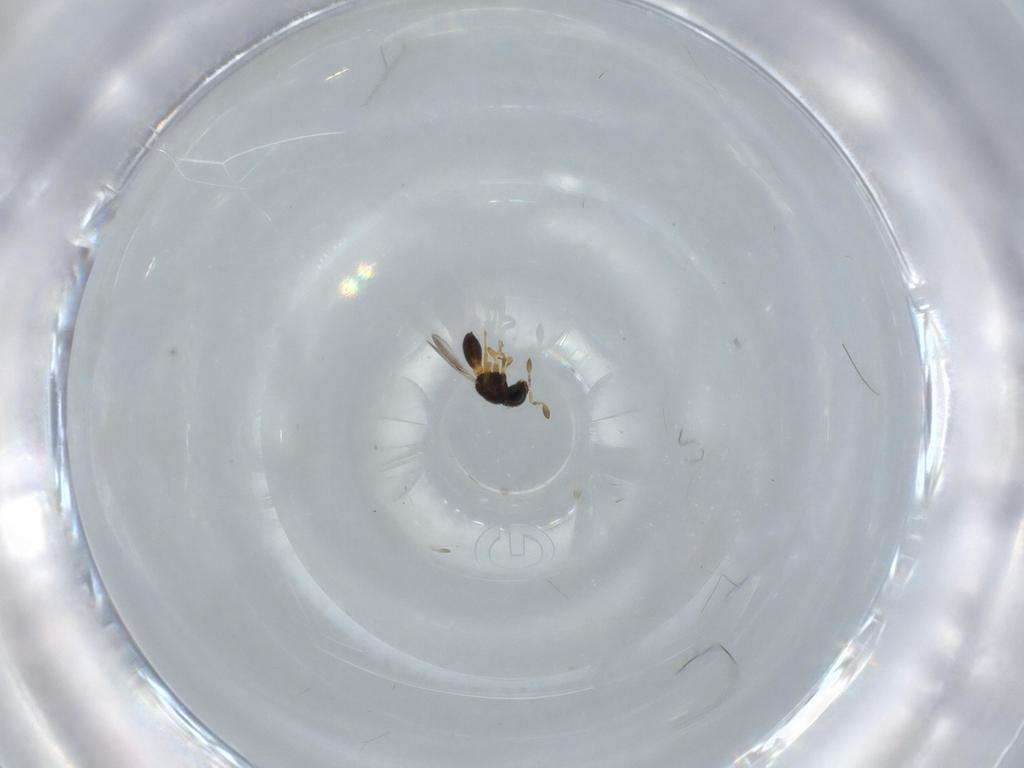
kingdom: Animalia
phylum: Arthropoda
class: Insecta
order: Hymenoptera
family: Scelionidae
